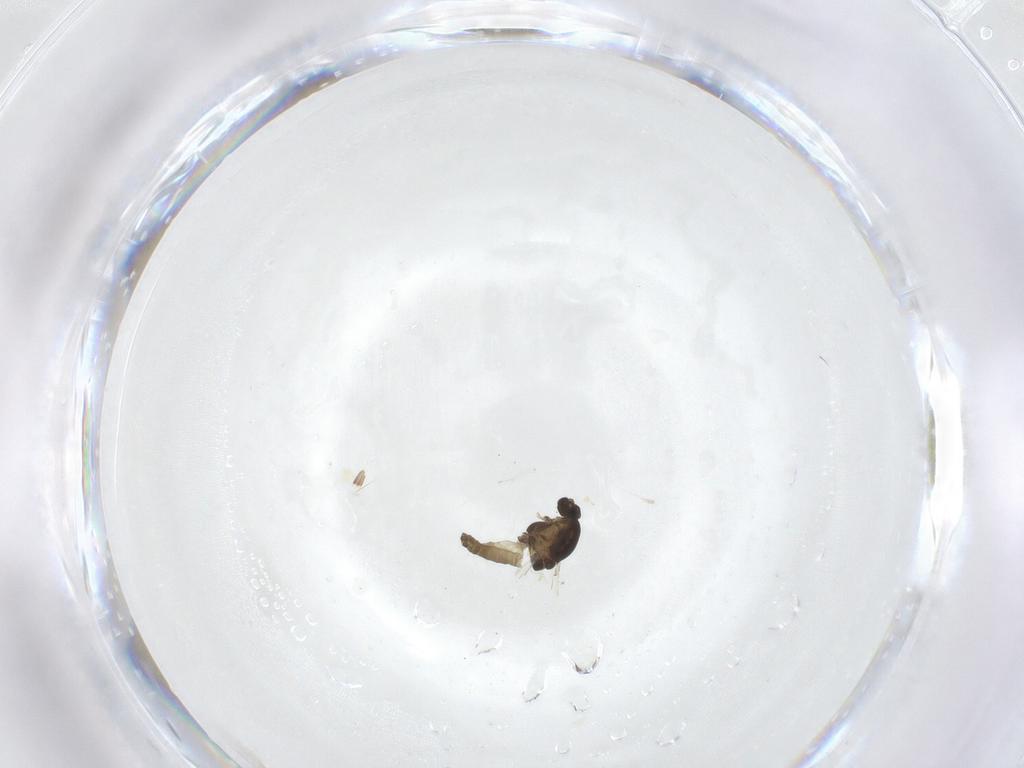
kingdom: Animalia
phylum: Arthropoda
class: Insecta
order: Diptera
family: Chironomidae
